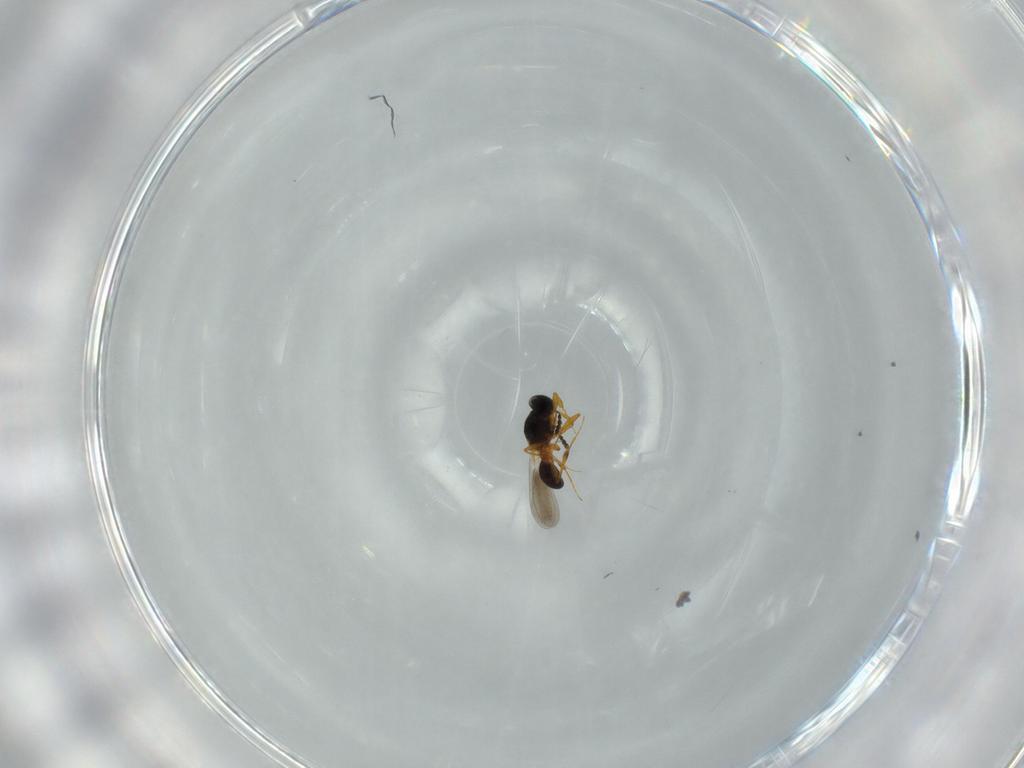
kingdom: Animalia
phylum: Arthropoda
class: Insecta
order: Hymenoptera
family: Platygastridae
